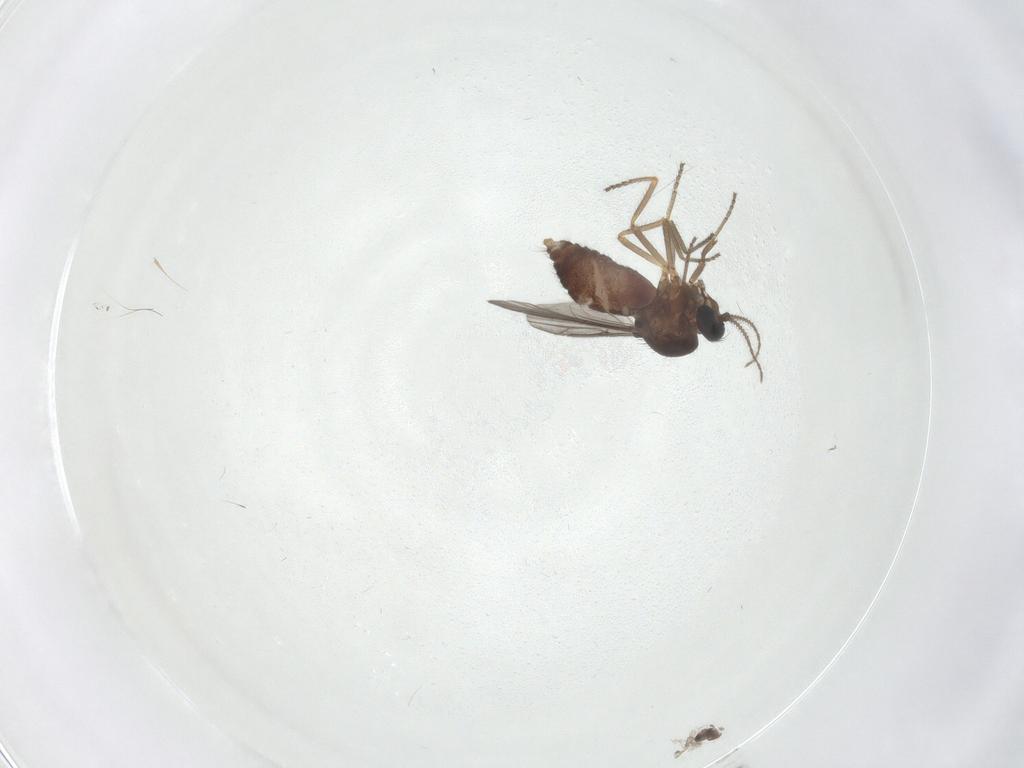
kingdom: Animalia
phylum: Arthropoda
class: Insecta
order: Diptera
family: Ceratopogonidae
